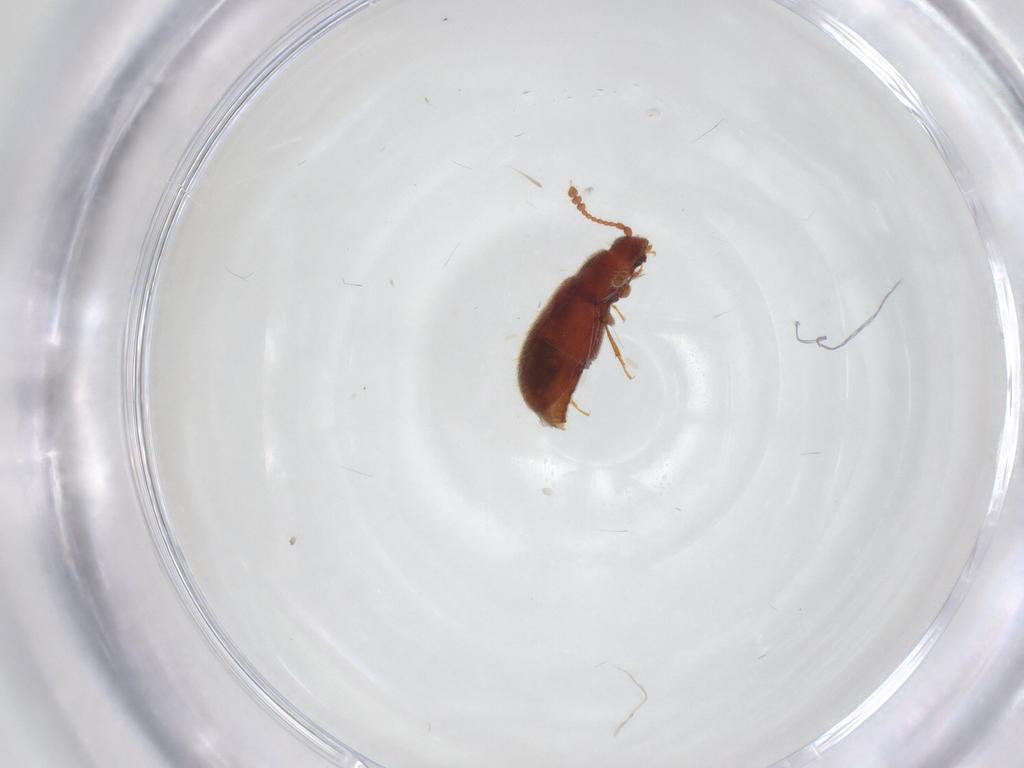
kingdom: Animalia
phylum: Arthropoda
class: Insecta
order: Coleoptera
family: Cryptophagidae
